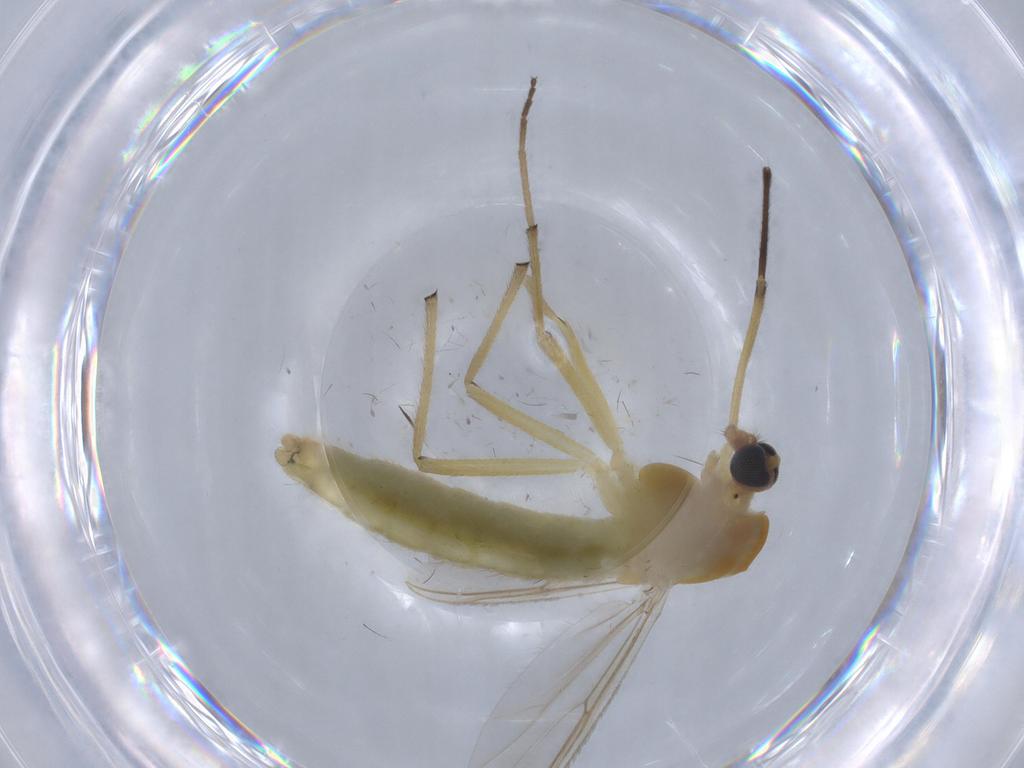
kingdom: Animalia
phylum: Arthropoda
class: Insecta
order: Diptera
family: Chironomidae
